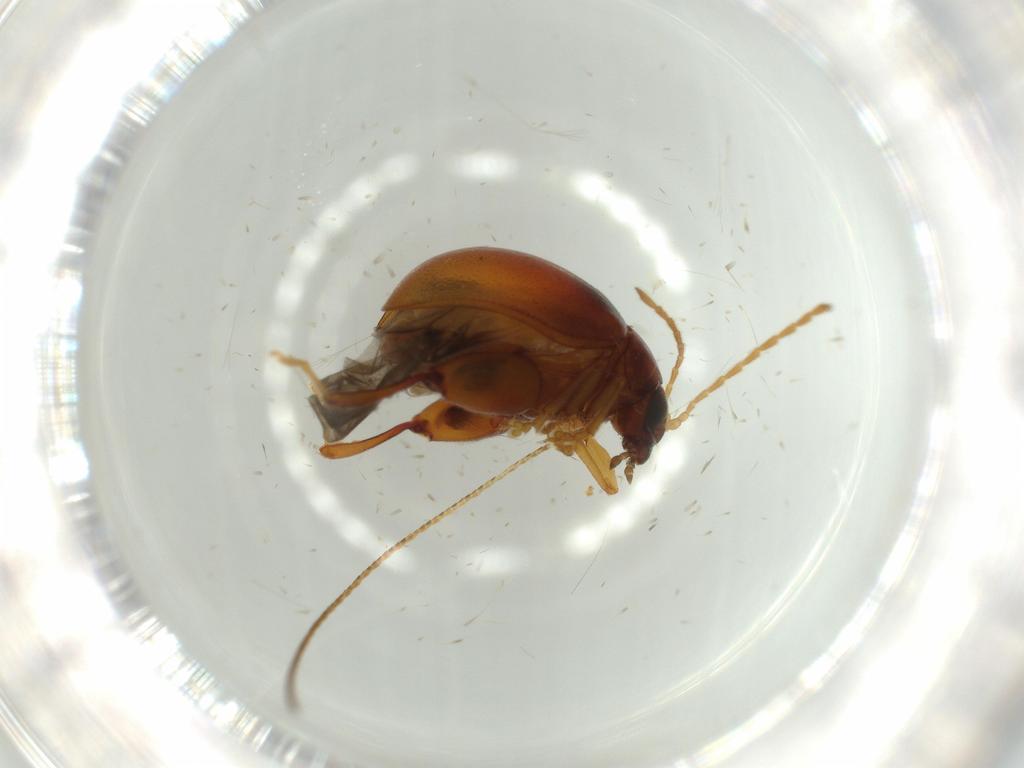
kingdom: Animalia
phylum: Arthropoda
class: Insecta
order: Coleoptera
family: Chrysomelidae
